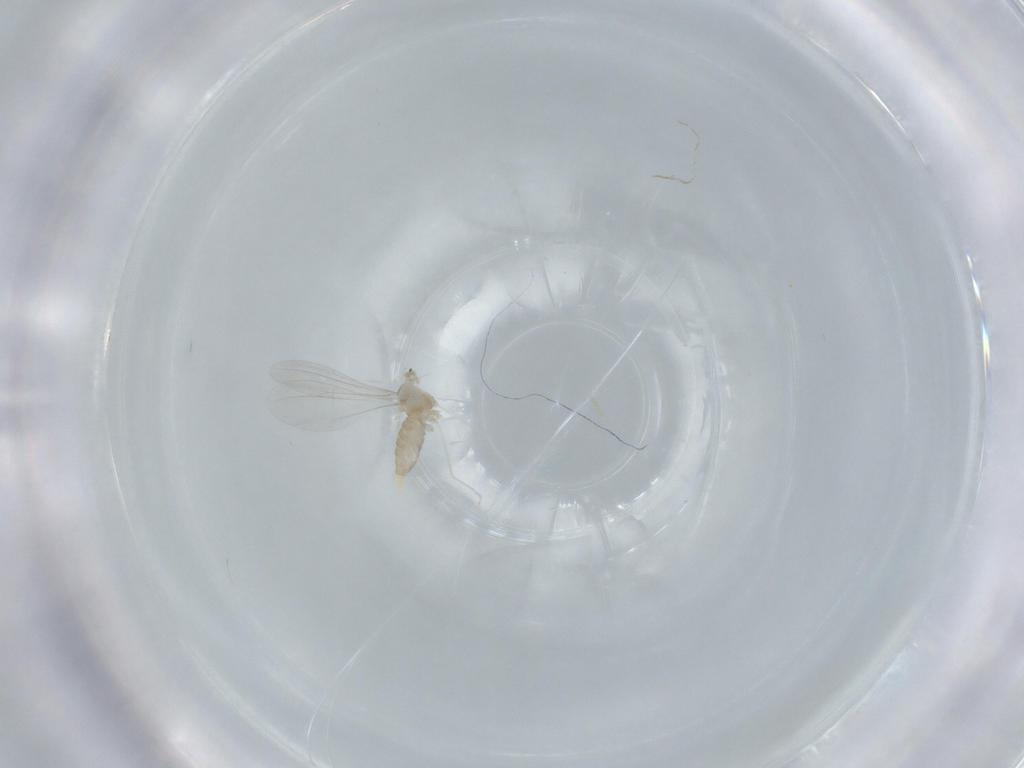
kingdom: Animalia
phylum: Arthropoda
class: Insecta
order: Diptera
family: Cecidomyiidae
